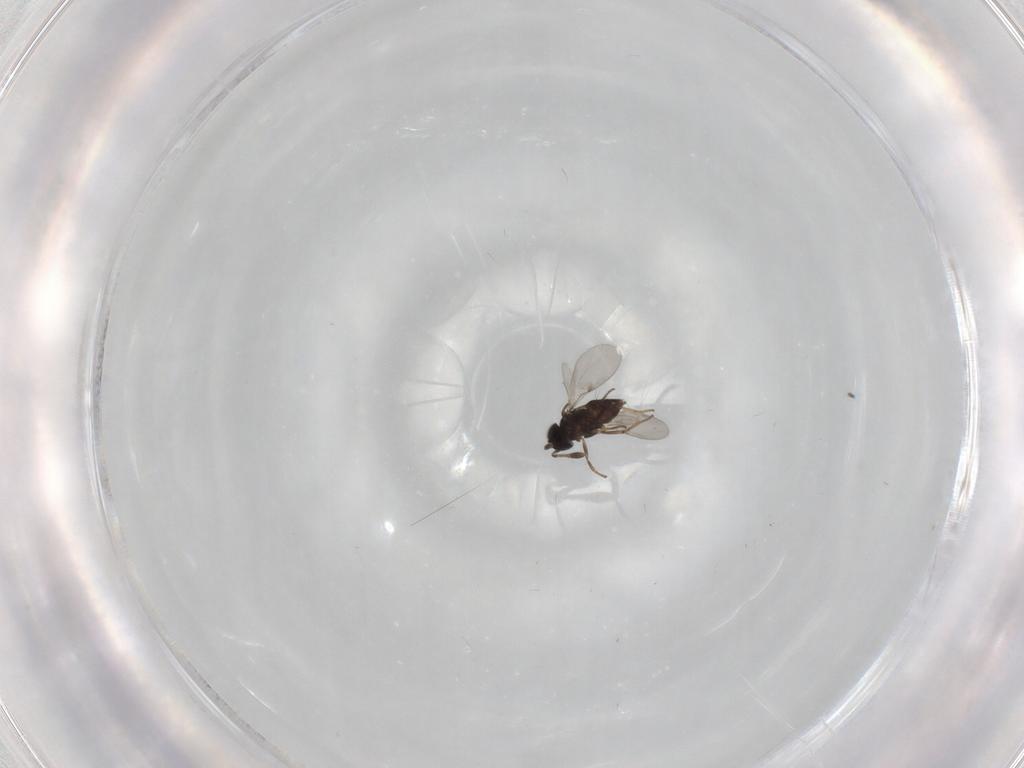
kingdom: Animalia
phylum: Arthropoda
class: Insecta
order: Hymenoptera
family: Encyrtidae
